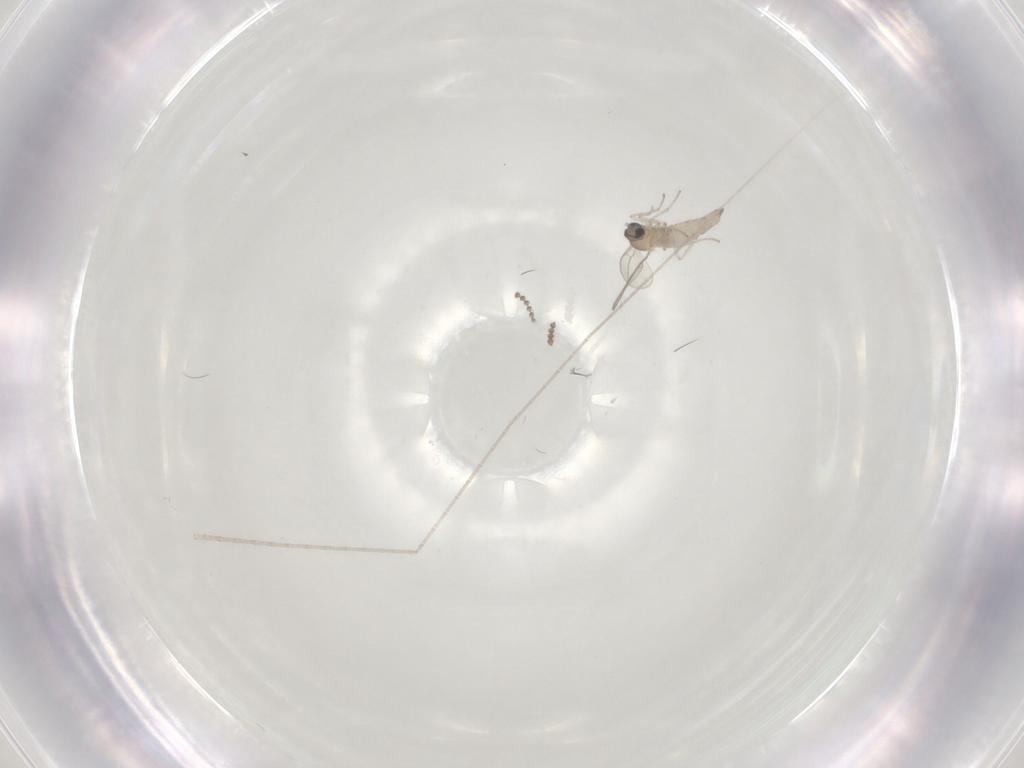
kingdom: Animalia
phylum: Arthropoda
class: Insecta
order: Diptera
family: Cecidomyiidae
